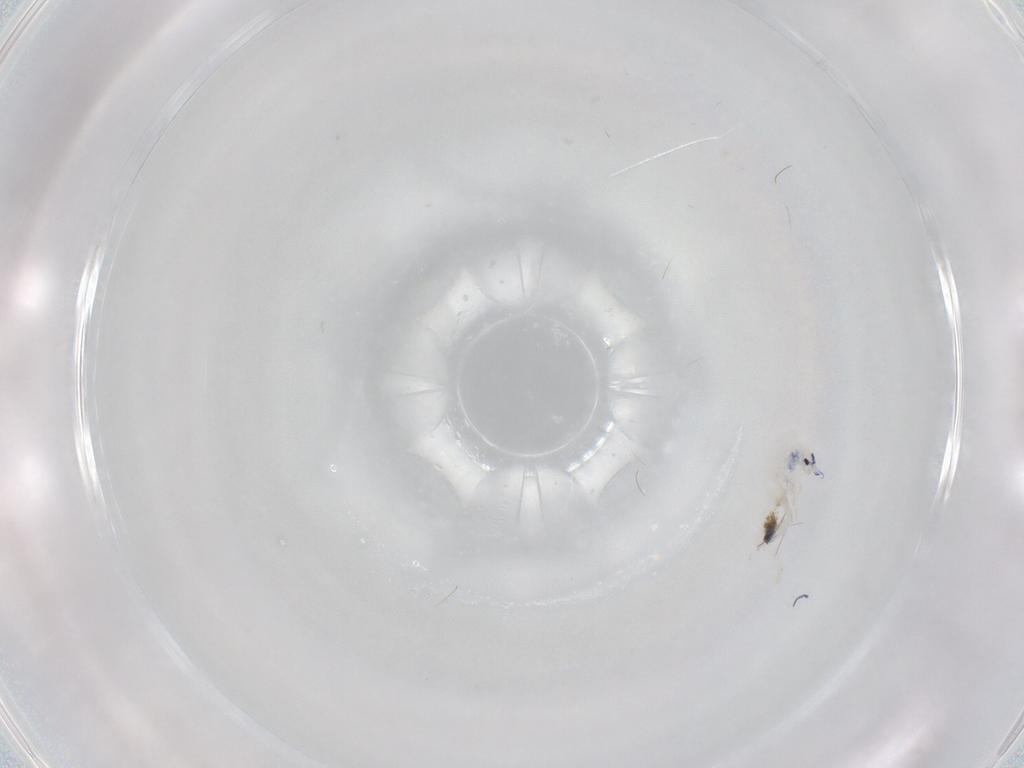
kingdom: Animalia
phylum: Arthropoda
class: Collembola
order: Entomobryomorpha
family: Entomobryidae
